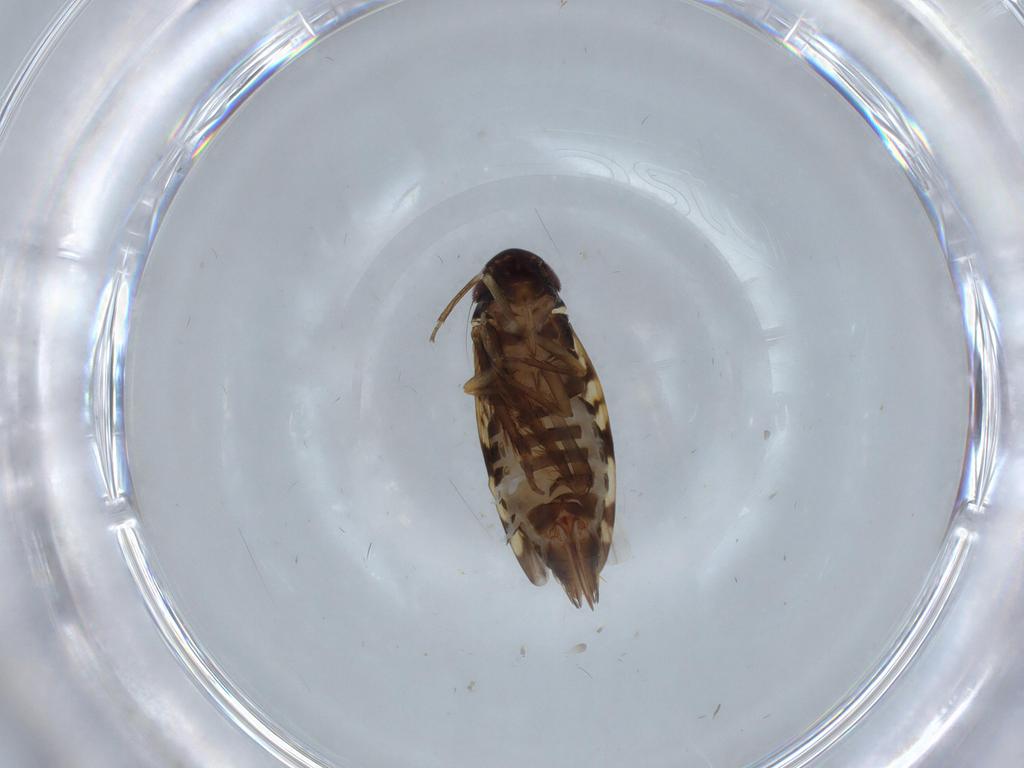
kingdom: Animalia
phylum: Arthropoda
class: Insecta
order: Hemiptera
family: Cicadellidae
